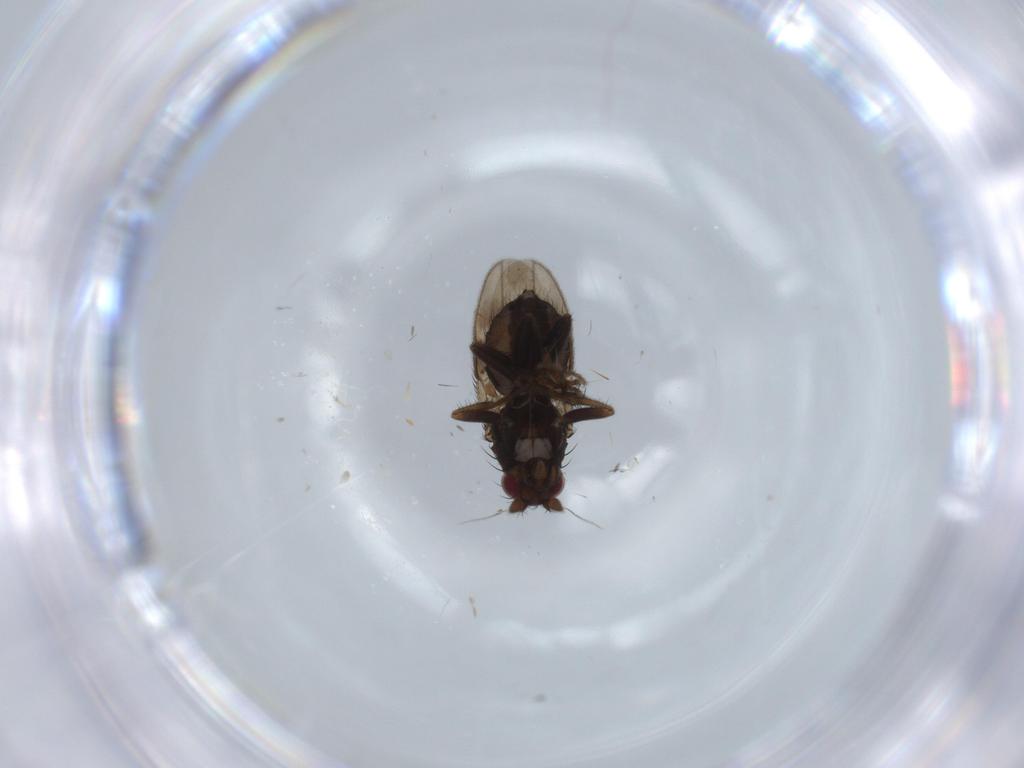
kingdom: Animalia
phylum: Arthropoda
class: Insecta
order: Diptera
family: Sphaeroceridae
